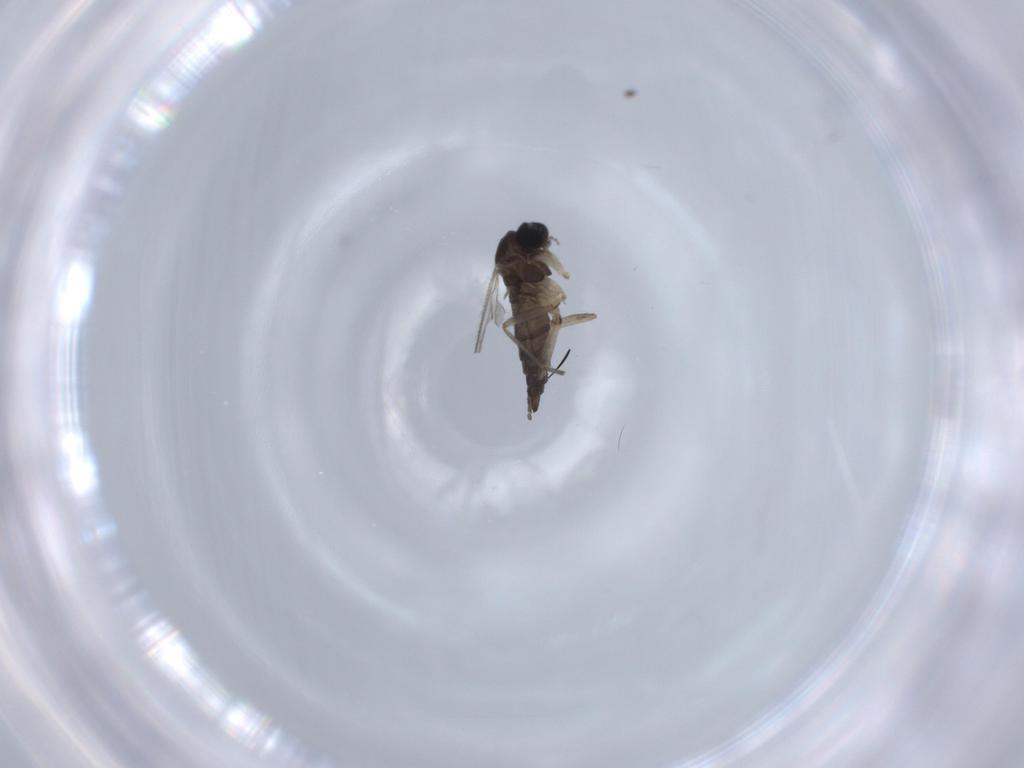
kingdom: Animalia
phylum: Arthropoda
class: Insecta
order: Diptera
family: Sciaridae
